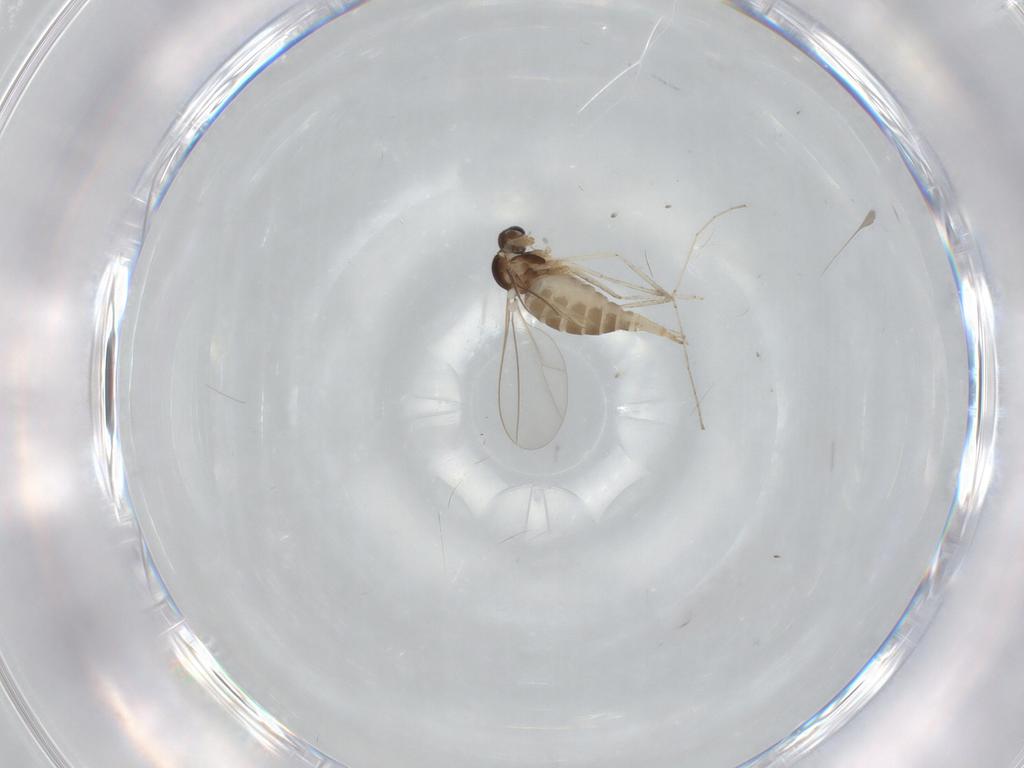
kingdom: Animalia
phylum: Arthropoda
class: Insecta
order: Diptera
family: Cecidomyiidae
